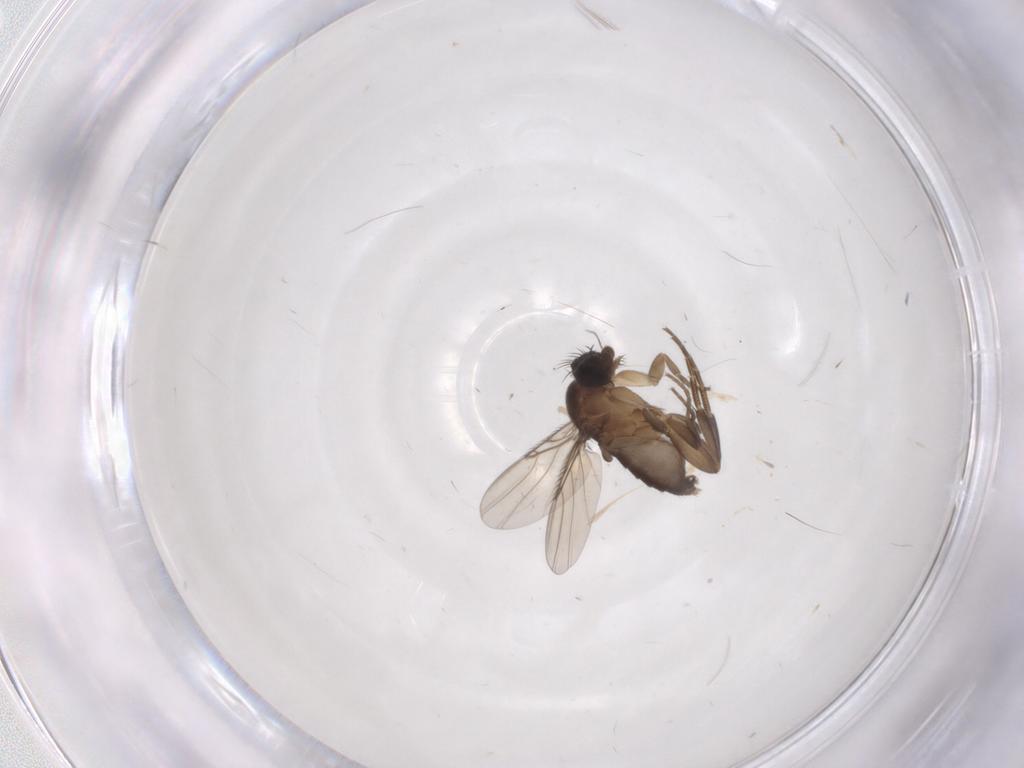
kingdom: Animalia
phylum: Arthropoda
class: Insecta
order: Diptera
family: Phoridae
